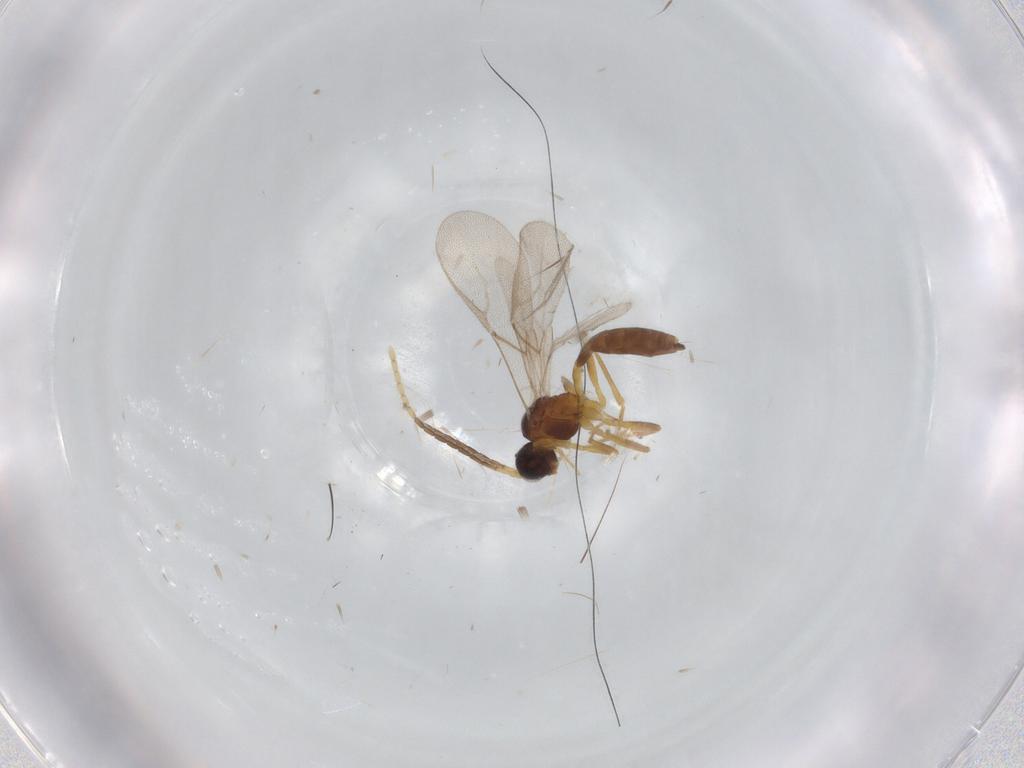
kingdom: Animalia
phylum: Arthropoda
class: Insecta
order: Hymenoptera
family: Braconidae
